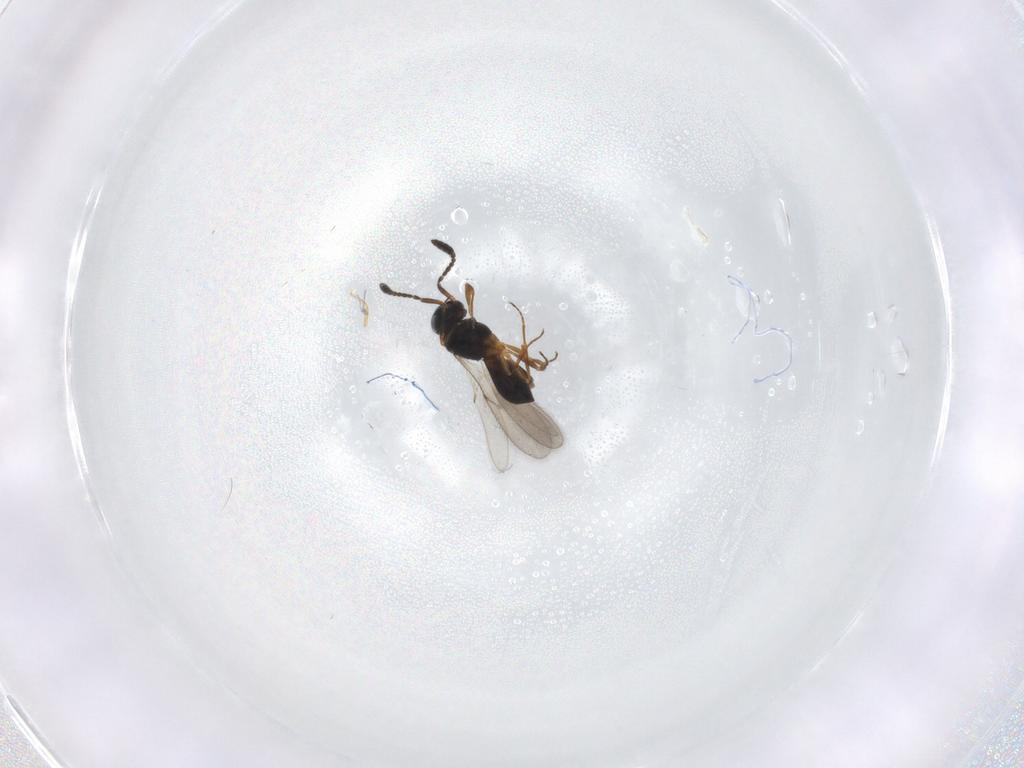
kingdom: Animalia
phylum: Arthropoda
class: Insecta
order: Hymenoptera
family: Scelionidae
